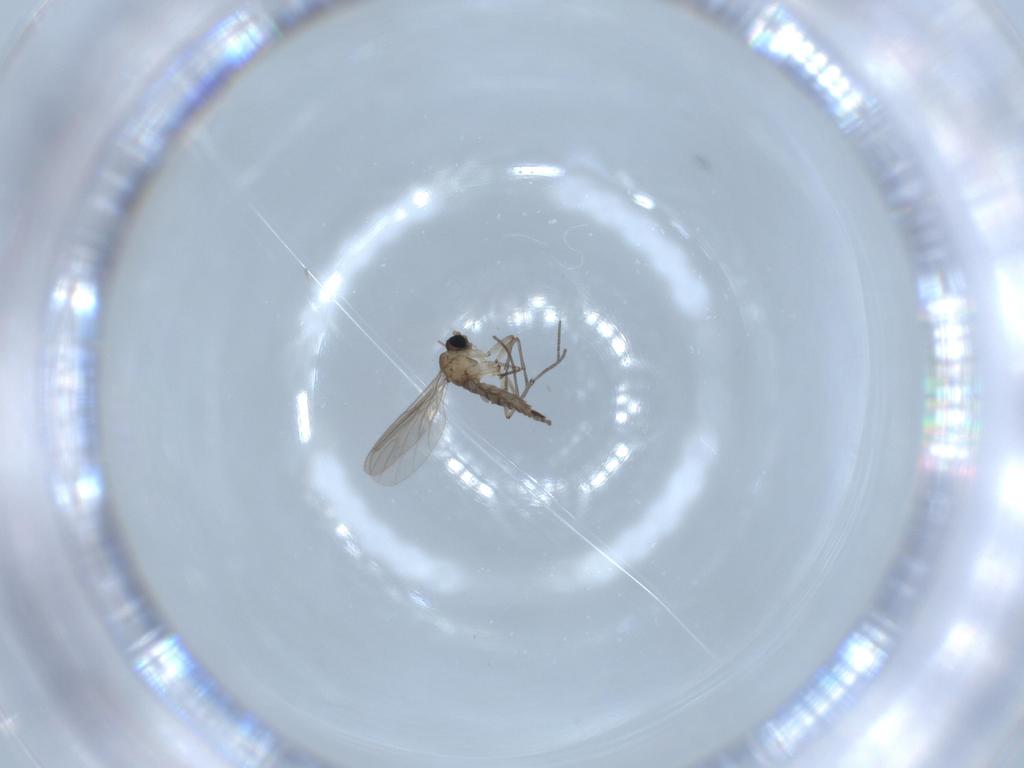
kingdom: Animalia
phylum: Arthropoda
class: Insecta
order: Diptera
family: Sciaridae
